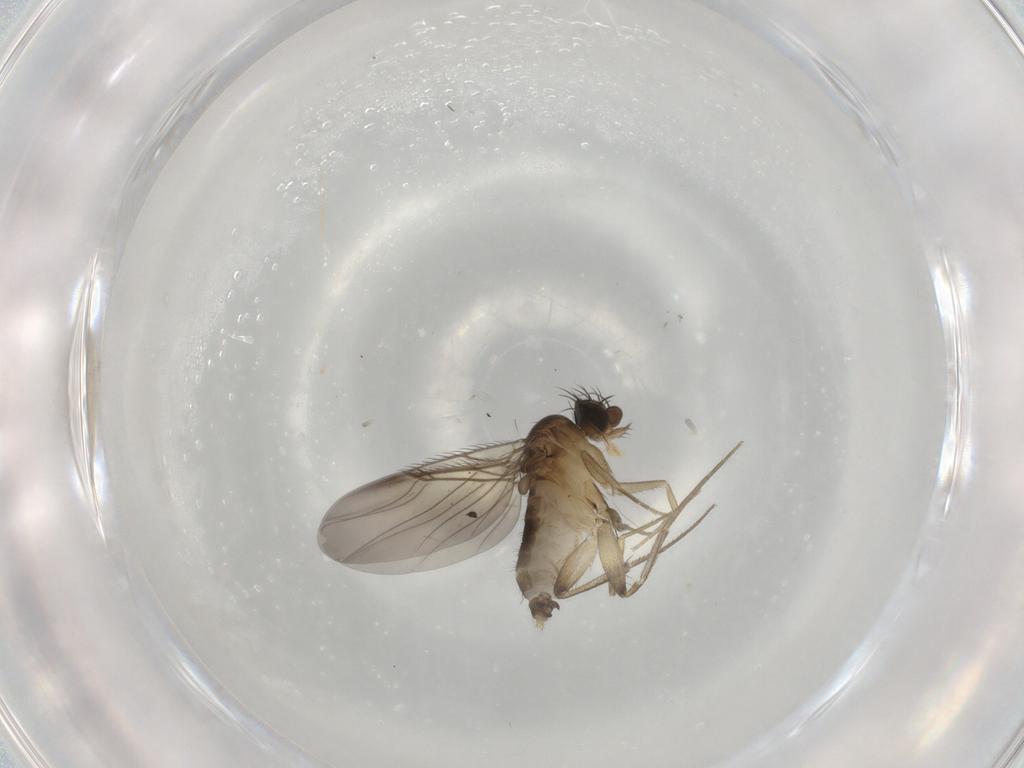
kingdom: Animalia
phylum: Arthropoda
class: Insecta
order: Diptera
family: Phoridae
